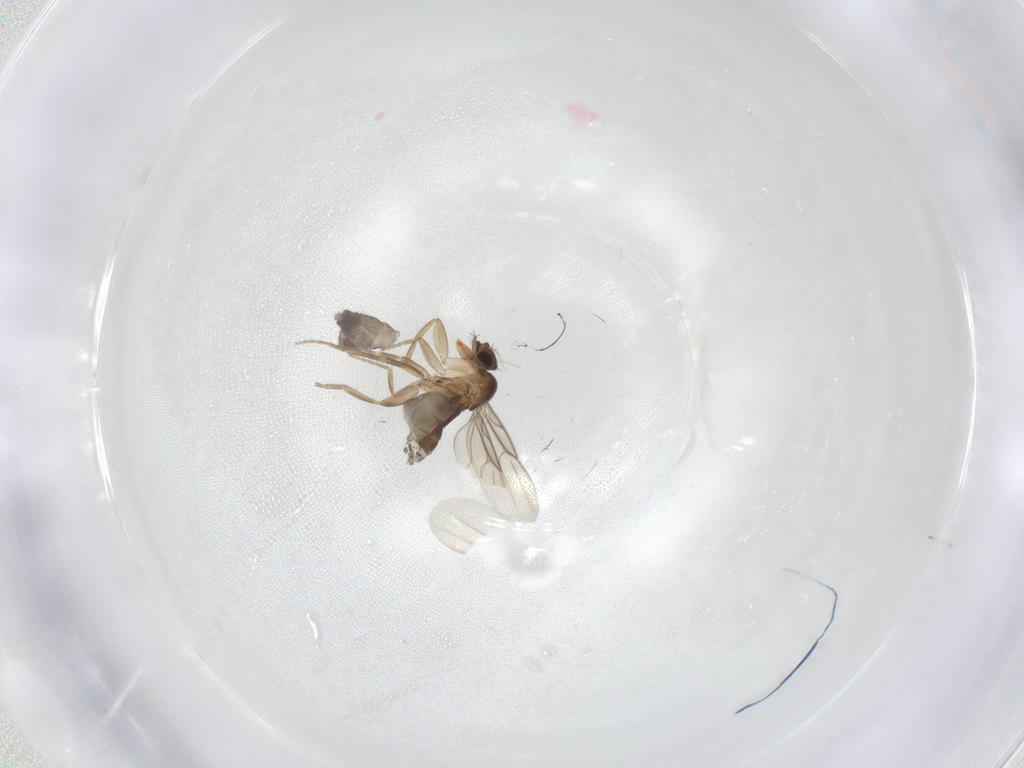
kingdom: Animalia
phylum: Arthropoda
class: Insecta
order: Diptera
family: Phoridae
